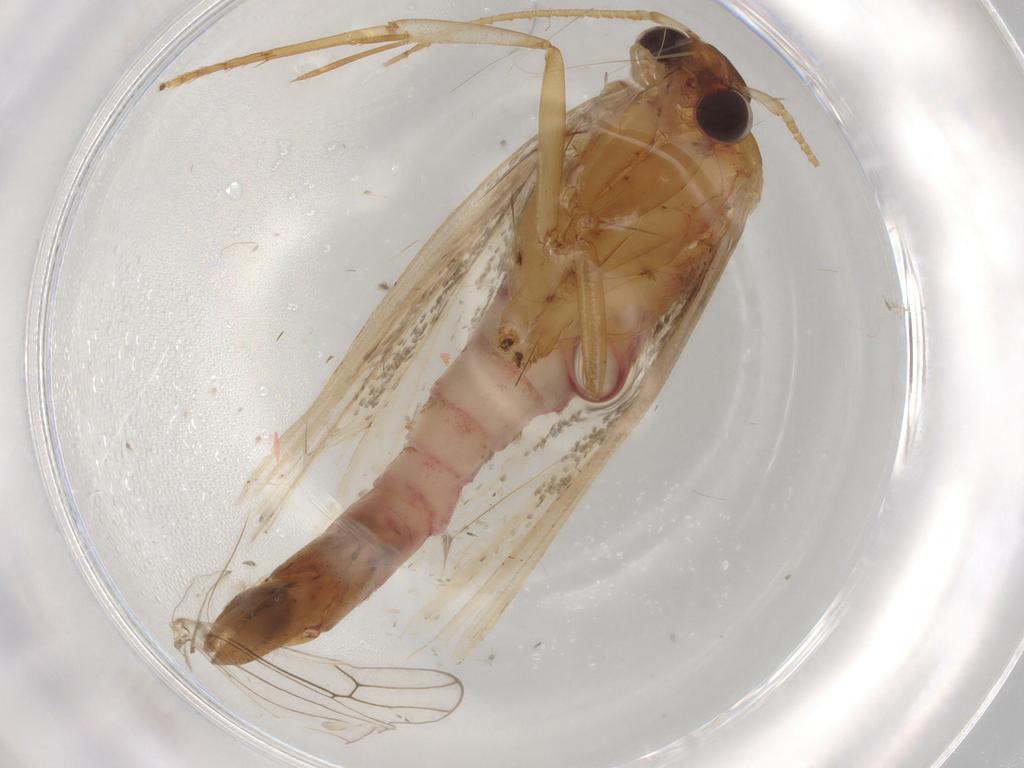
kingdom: Animalia
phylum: Arthropoda
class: Insecta
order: Lepidoptera
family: Lecithoceridae
